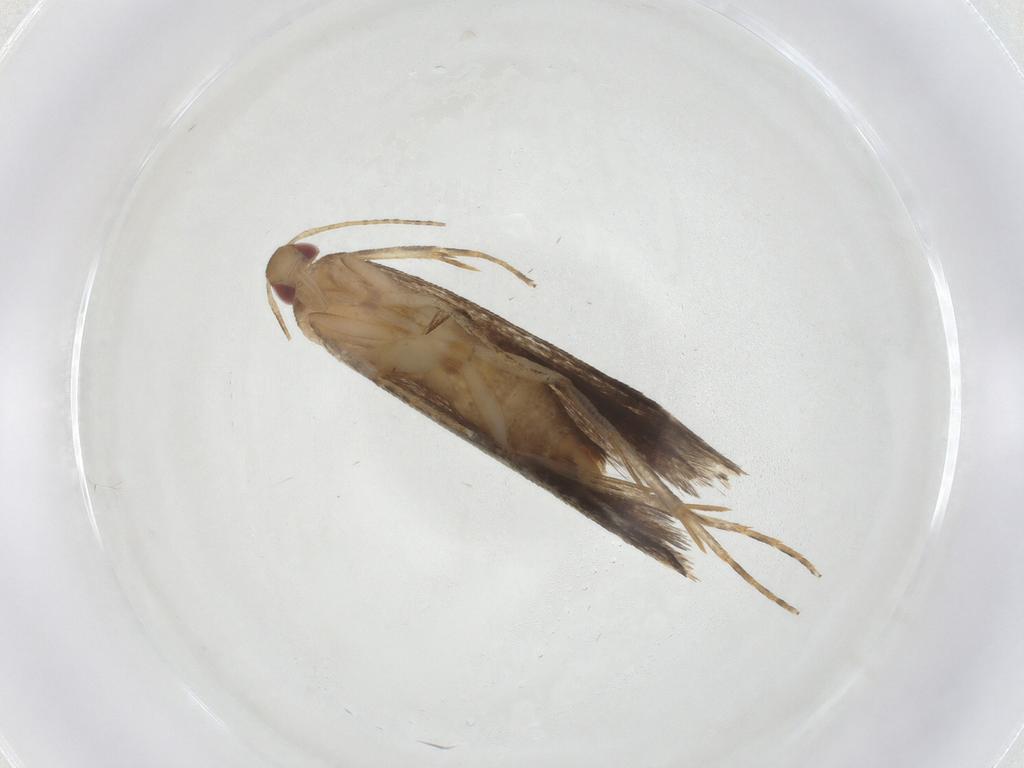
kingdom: Animalia
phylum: Arthropoda
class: Insecta
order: Lepidoptera
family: Gelechiidae
